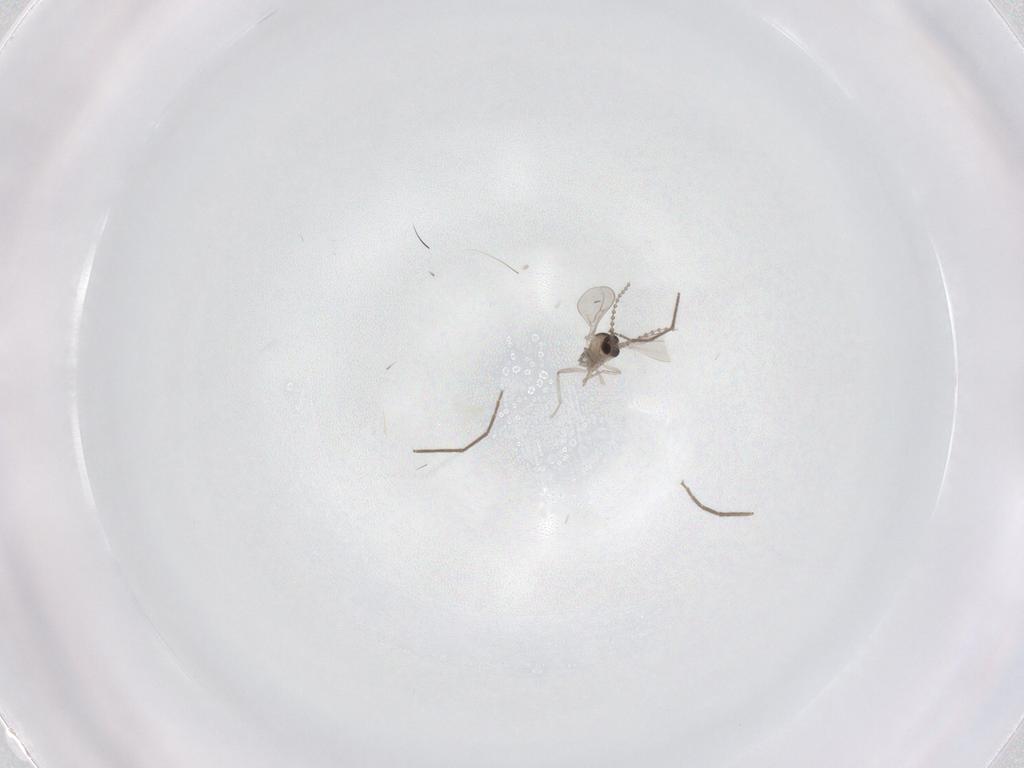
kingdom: Animalia
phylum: Arthropoda
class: Insecta
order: Diptera
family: Cecidomyiidae
